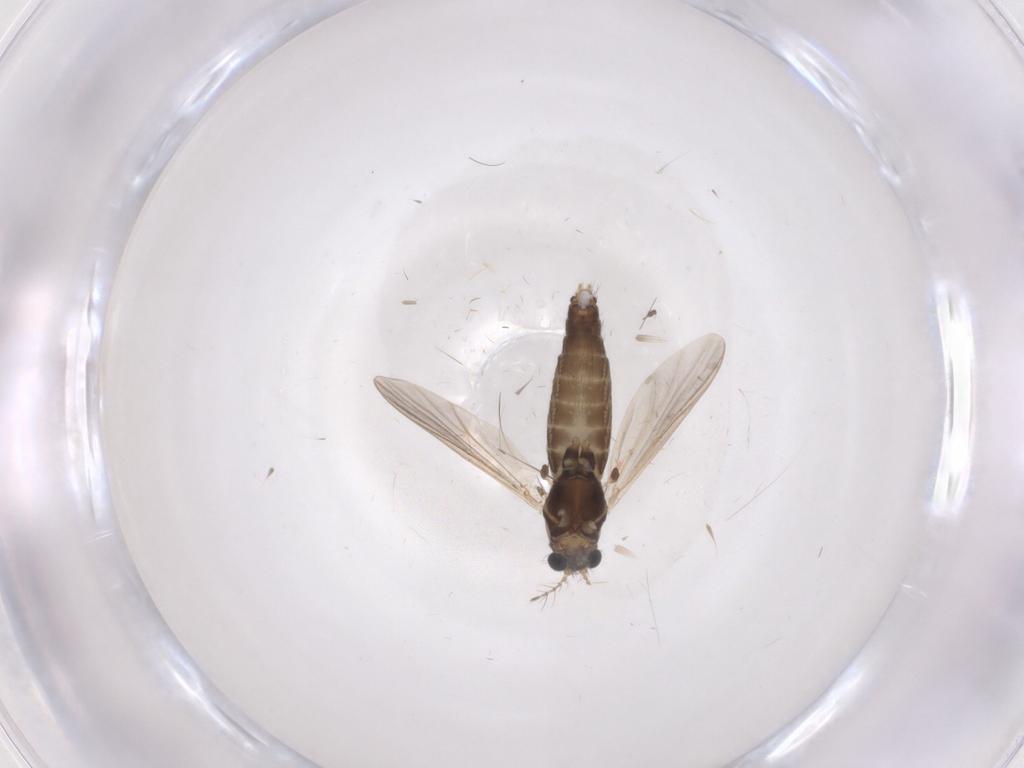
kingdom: Animalia
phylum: Arthropoda
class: Insecta
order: Diptera
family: Chironomidae
